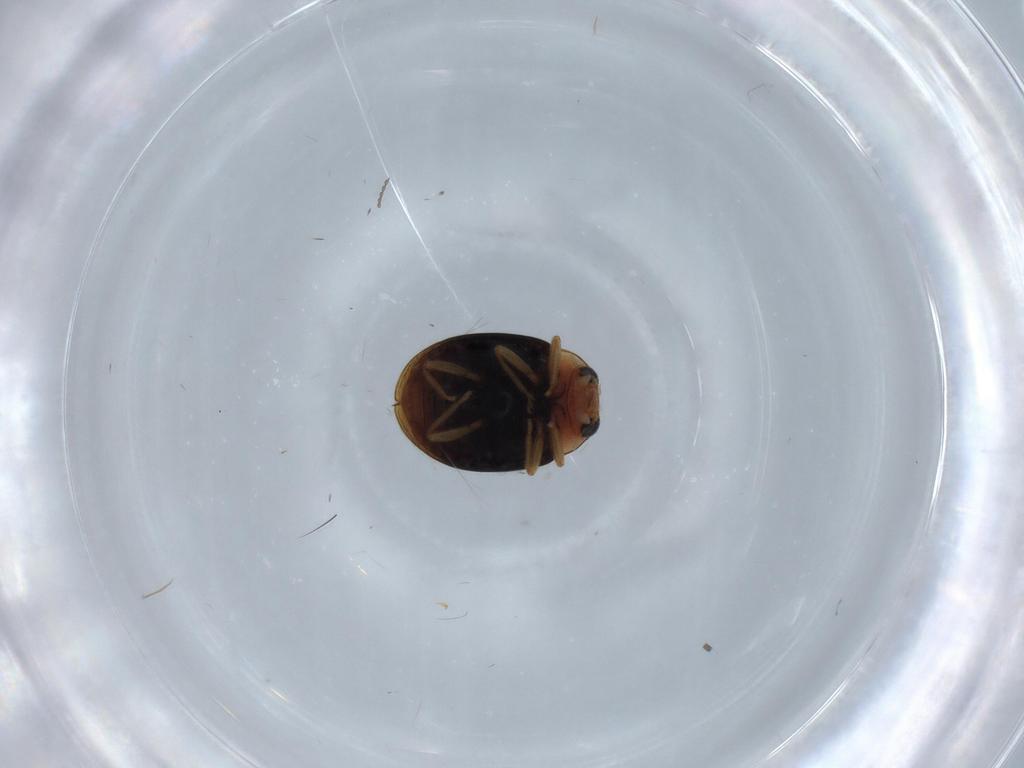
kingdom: Animalia
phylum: Arthropoda
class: Insecta
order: Coleoptera
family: Coccinellidae
